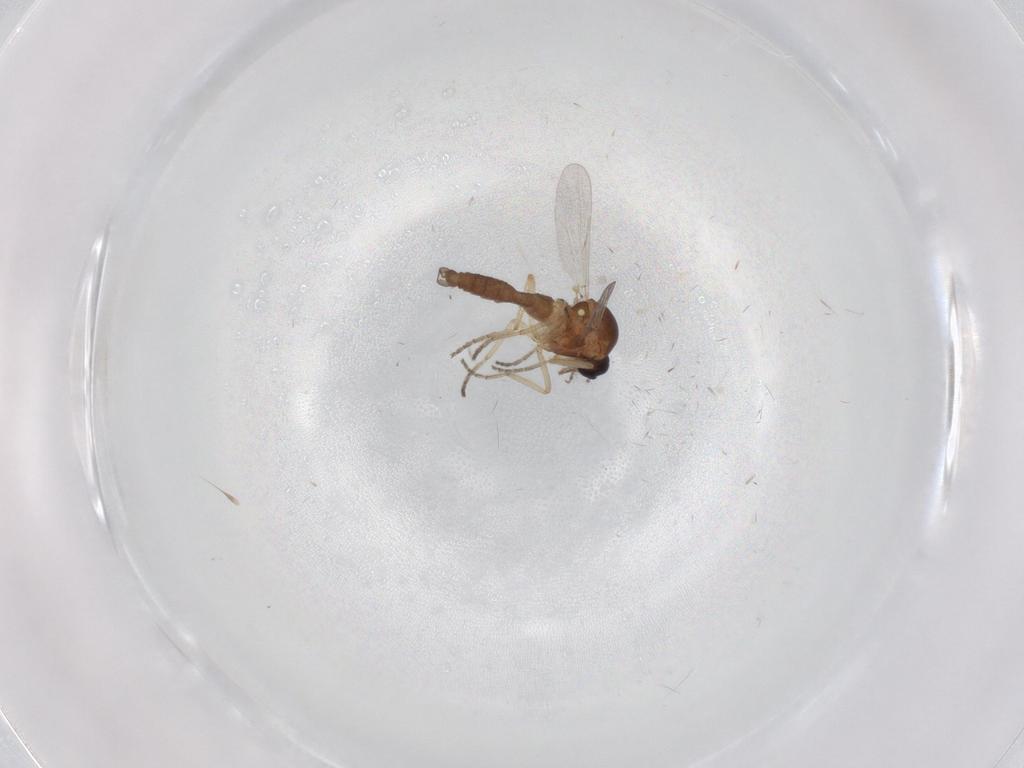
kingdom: Animalia
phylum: Arthropoda
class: Insecta
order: Diptera
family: Ceratopogonidae
